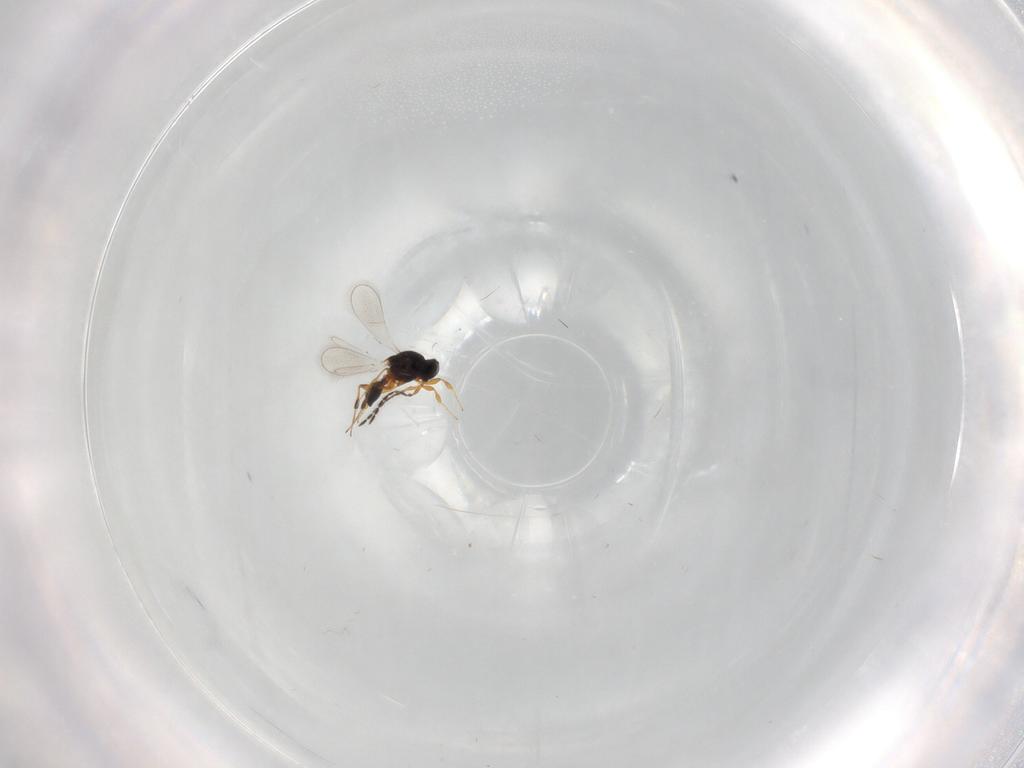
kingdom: Animalia
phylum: Arthropoda
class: Insecta
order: Hymenoptera
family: Platygastridae
